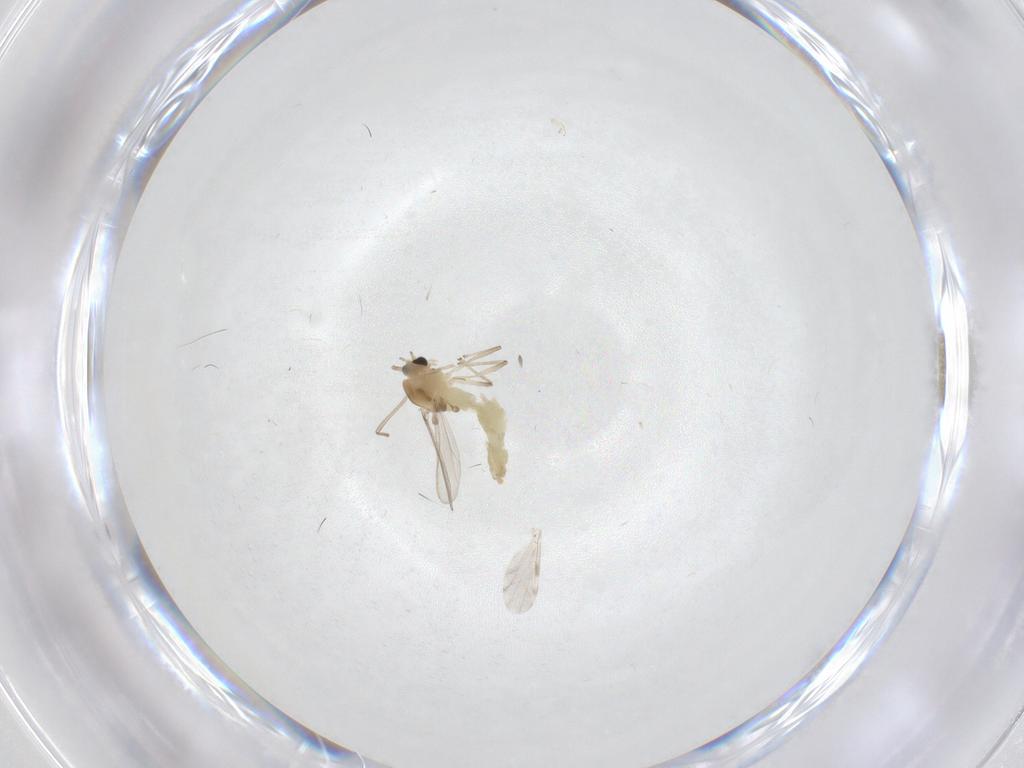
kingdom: Animalia
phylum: Arthropoda
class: Insecta
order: Diptera
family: Chironomidae
